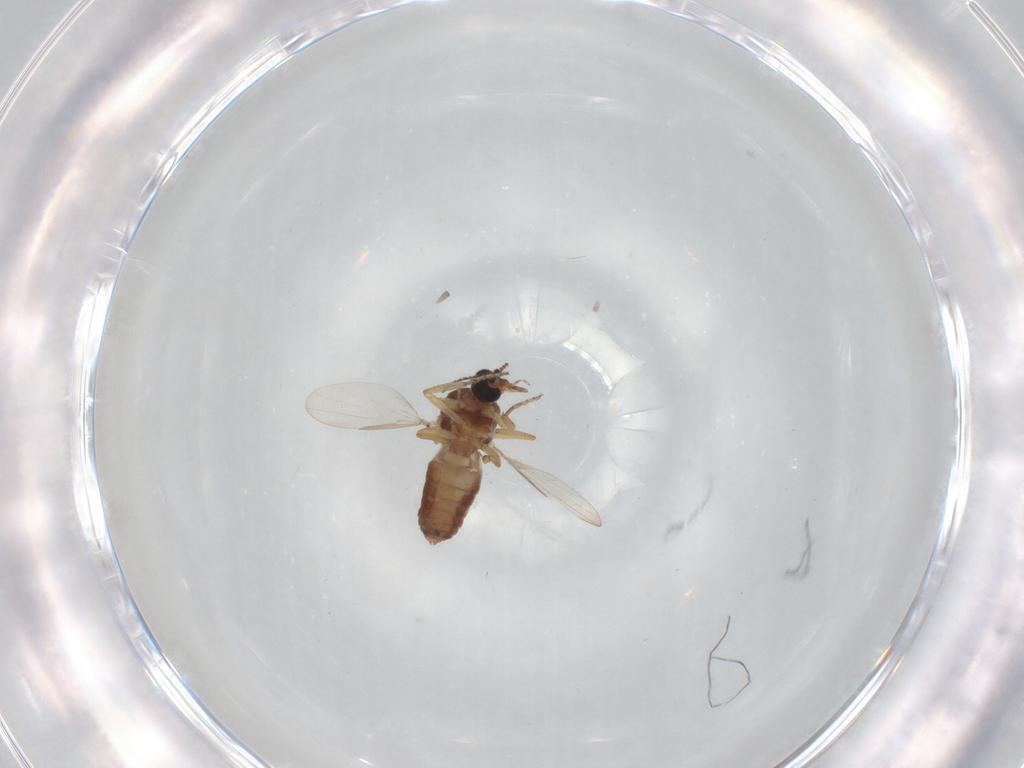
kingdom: Animalia
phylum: Arthropoda
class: Insecta
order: Diptera
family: Ceratopogonidae
